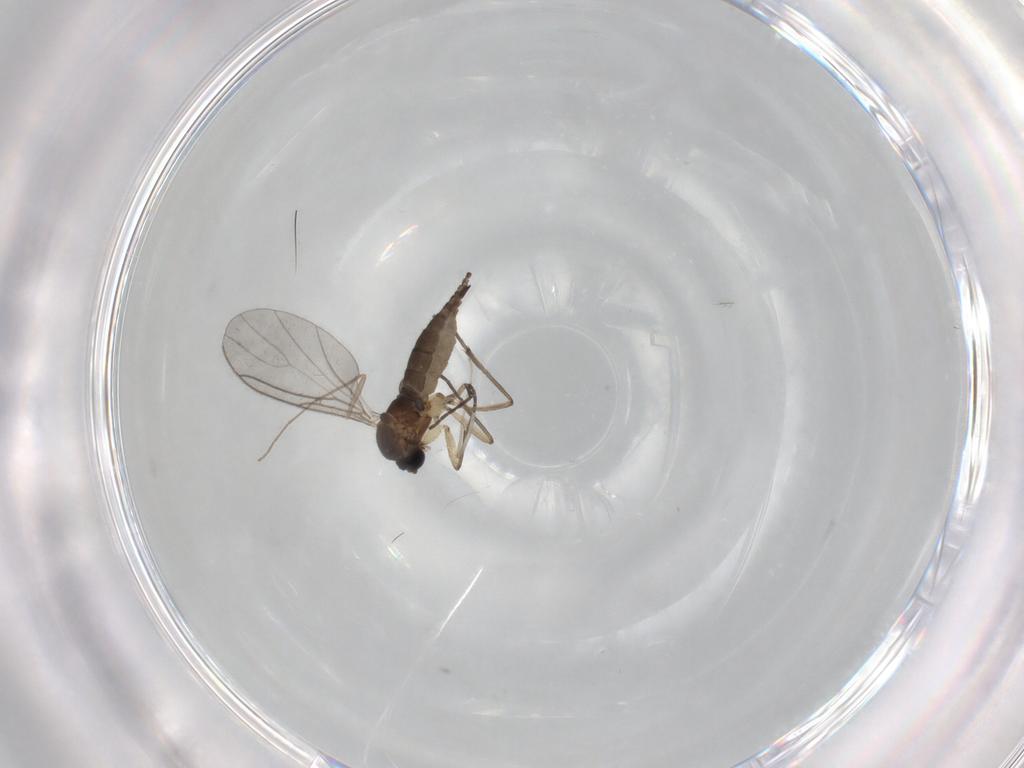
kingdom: Animalia
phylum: Arthropoda
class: Insecta
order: Diptera
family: Sciaridae
